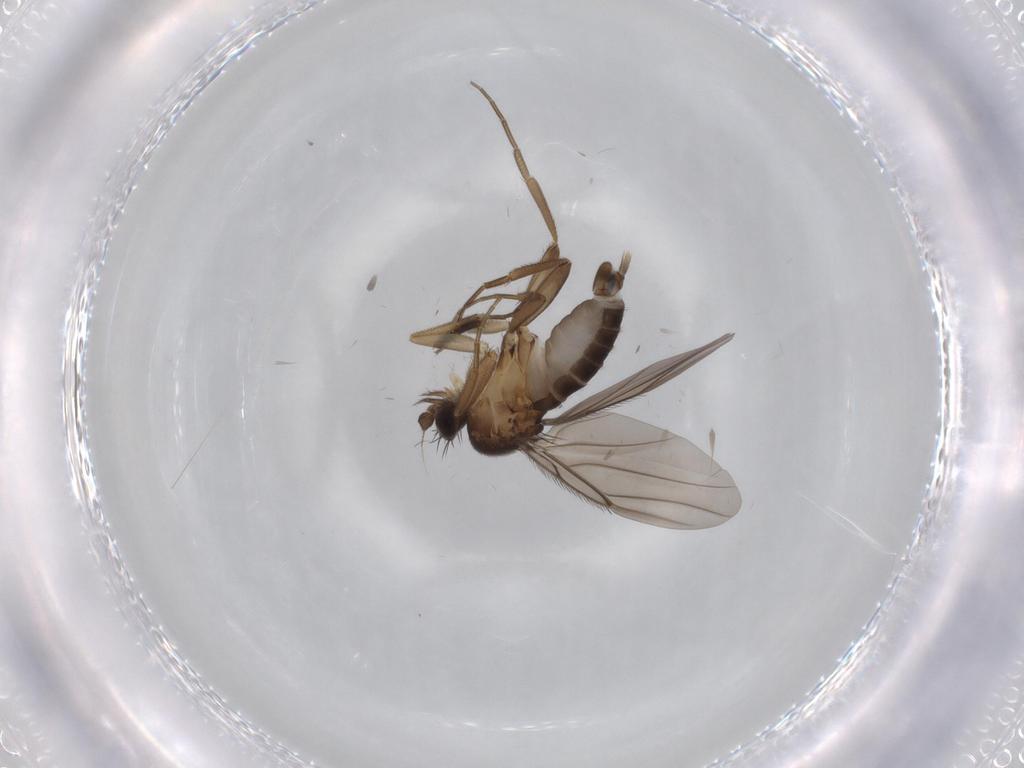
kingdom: Animalia
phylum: Arthropoda
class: Insecta
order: Diptera
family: Sciaridae
